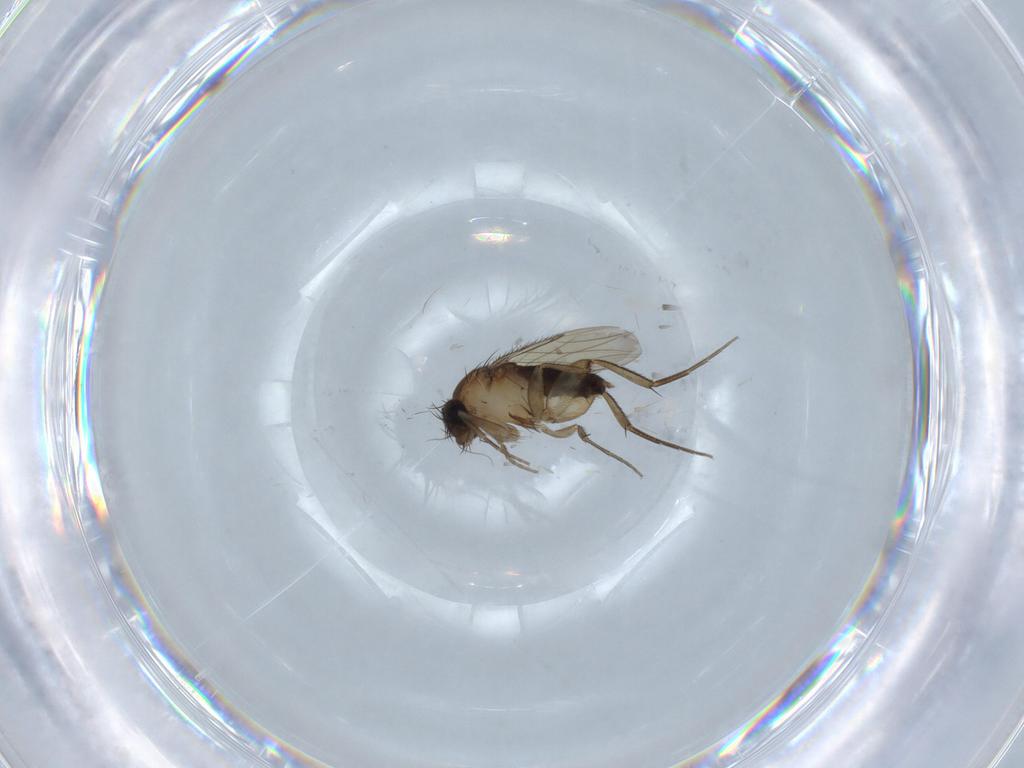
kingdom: Animalia
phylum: Arthropoda
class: Insecta
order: Diptera
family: Phoridae
